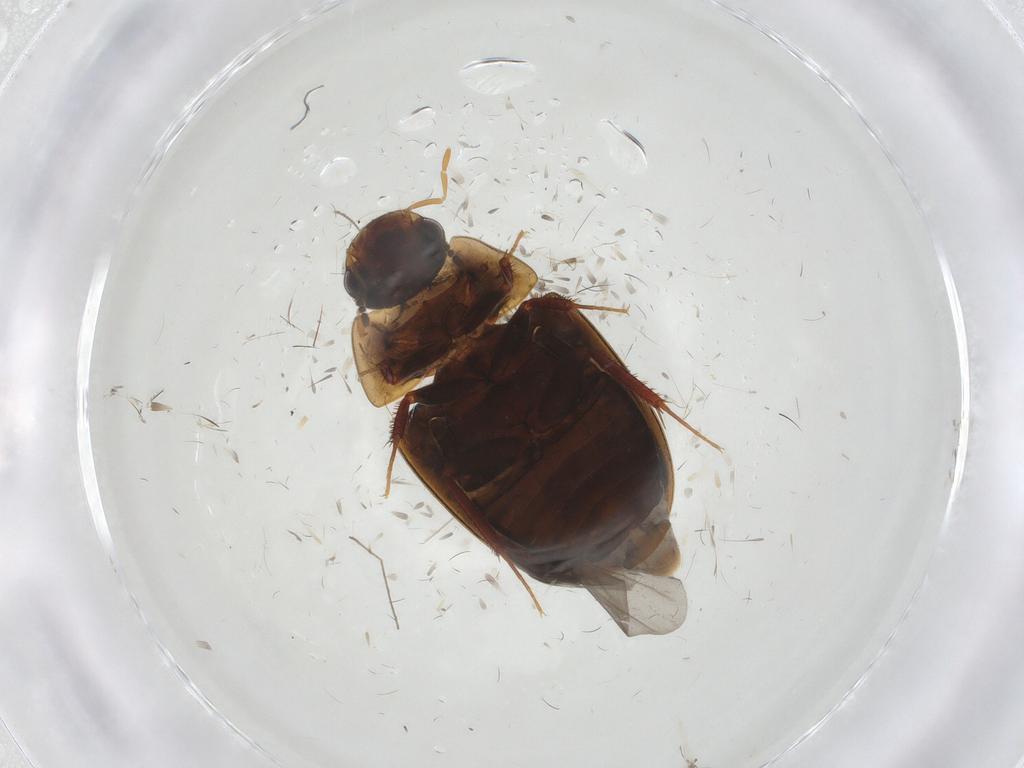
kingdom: Animalia
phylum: Arthropoda
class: Insecta
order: Coleoptera
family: Hydrophilidae
